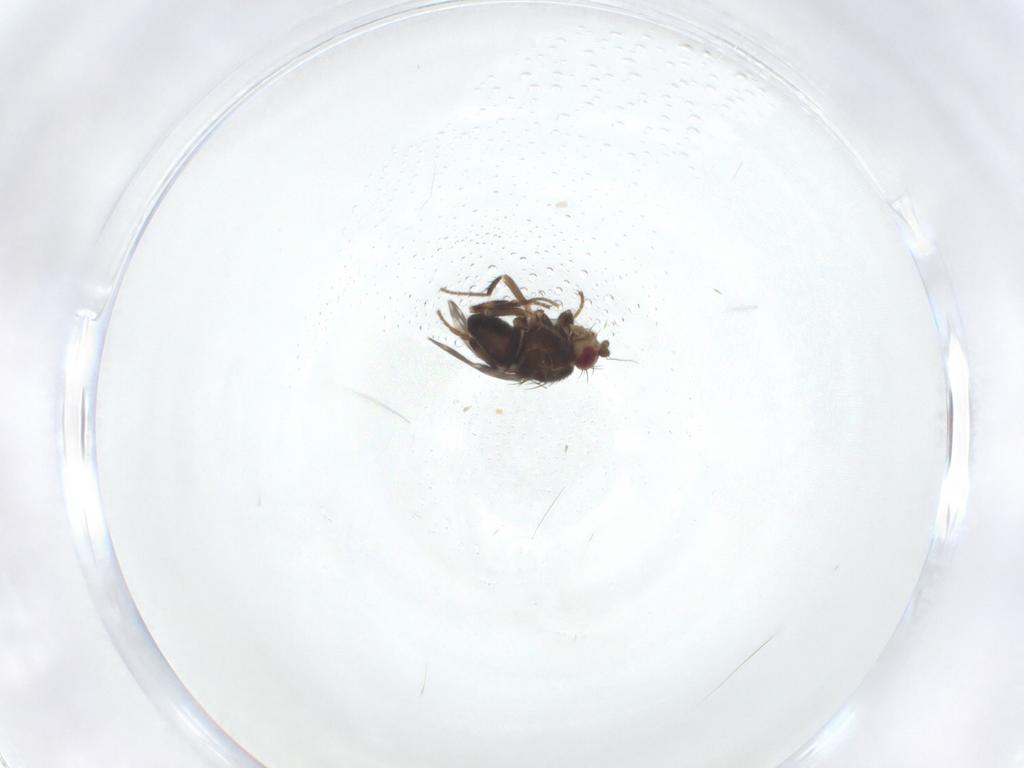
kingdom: Animalia
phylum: Arthropoda
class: Insecta
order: Diptera
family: Sphaeroceridae
